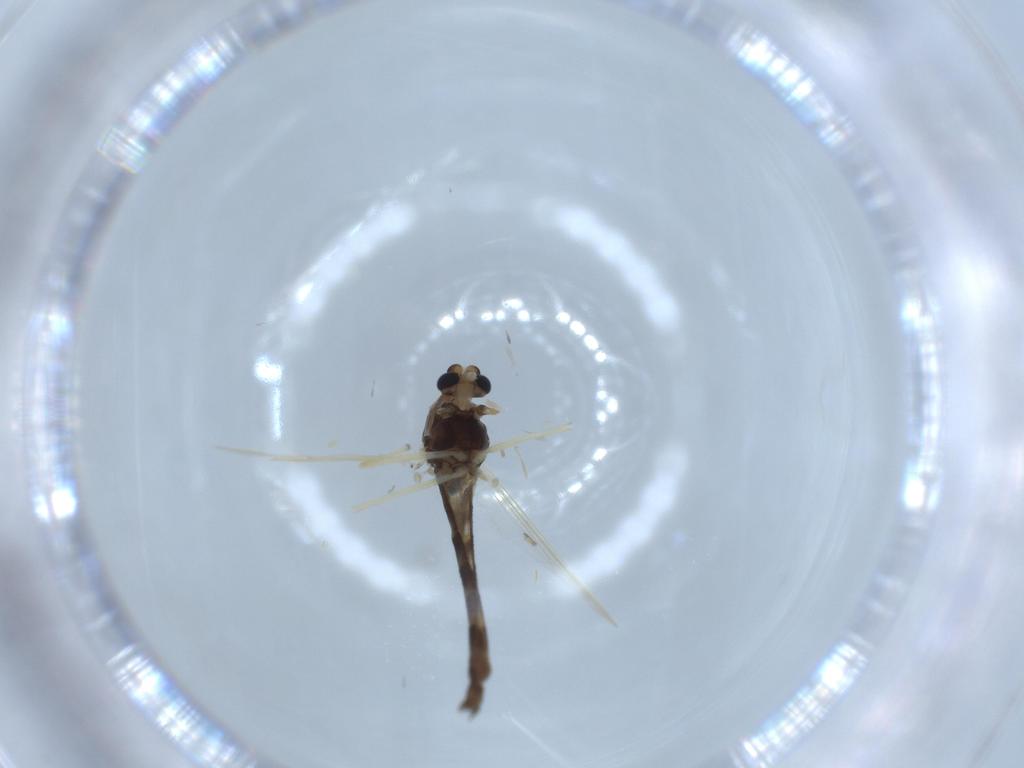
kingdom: Animalia
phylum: Arthropoda
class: Insecta
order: Diptera
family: Chironomidae
